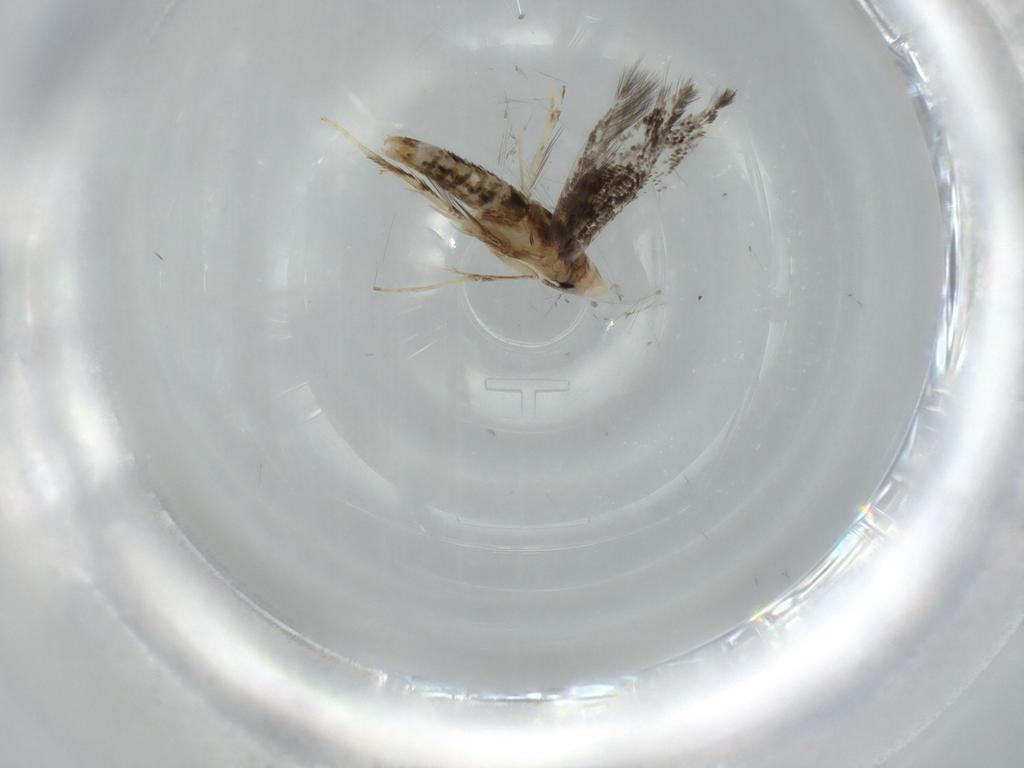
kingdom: Animalia
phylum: Arthropoda
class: Insecta
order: Lepidoptera
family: Nepticulidae
